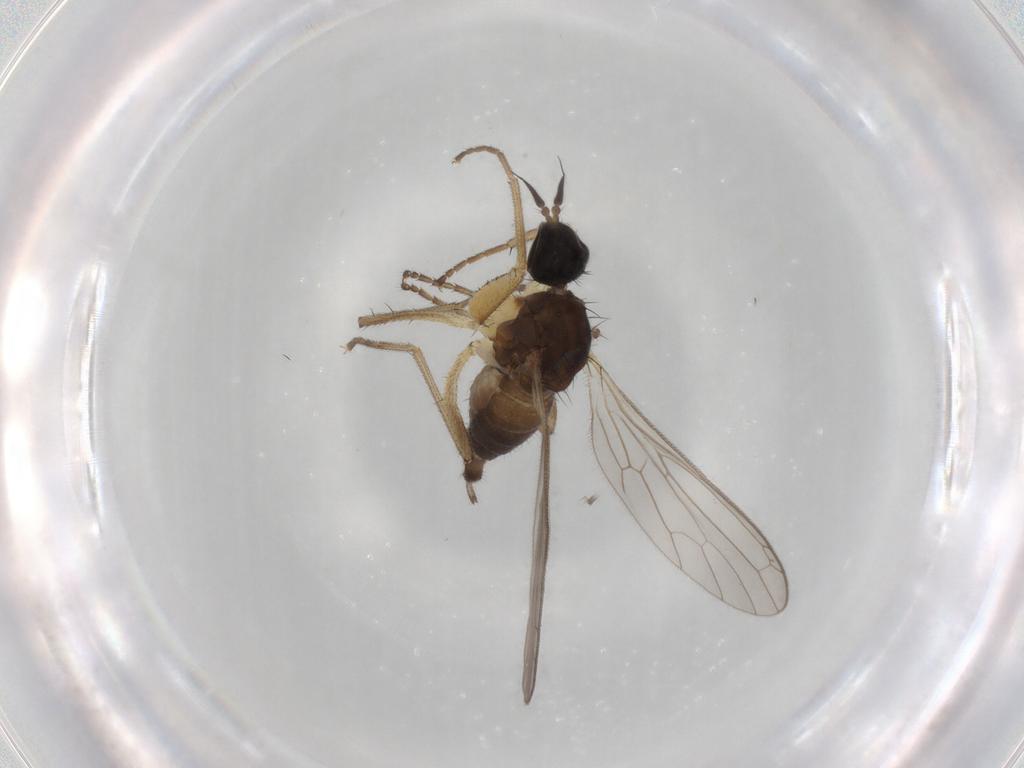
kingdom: Animalia
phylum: Arthropoda
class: Insecta
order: Diptera
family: Empididae
